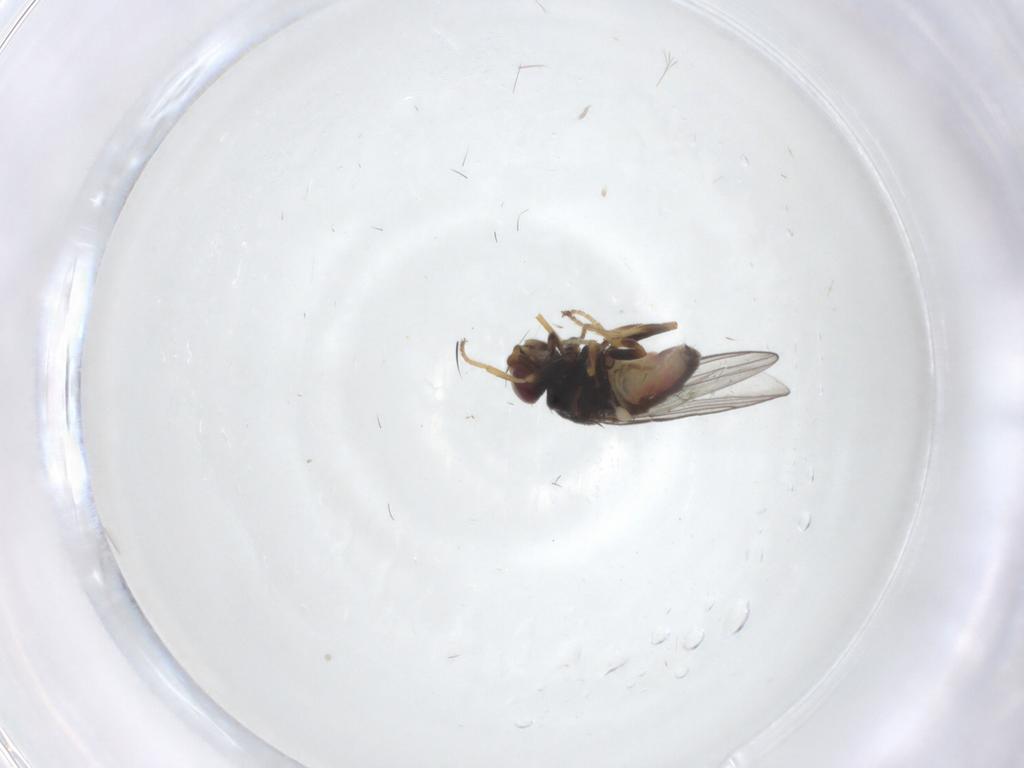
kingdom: Animalia
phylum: Arthropoda
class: Insecta
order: Diptera
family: Chloropidae
